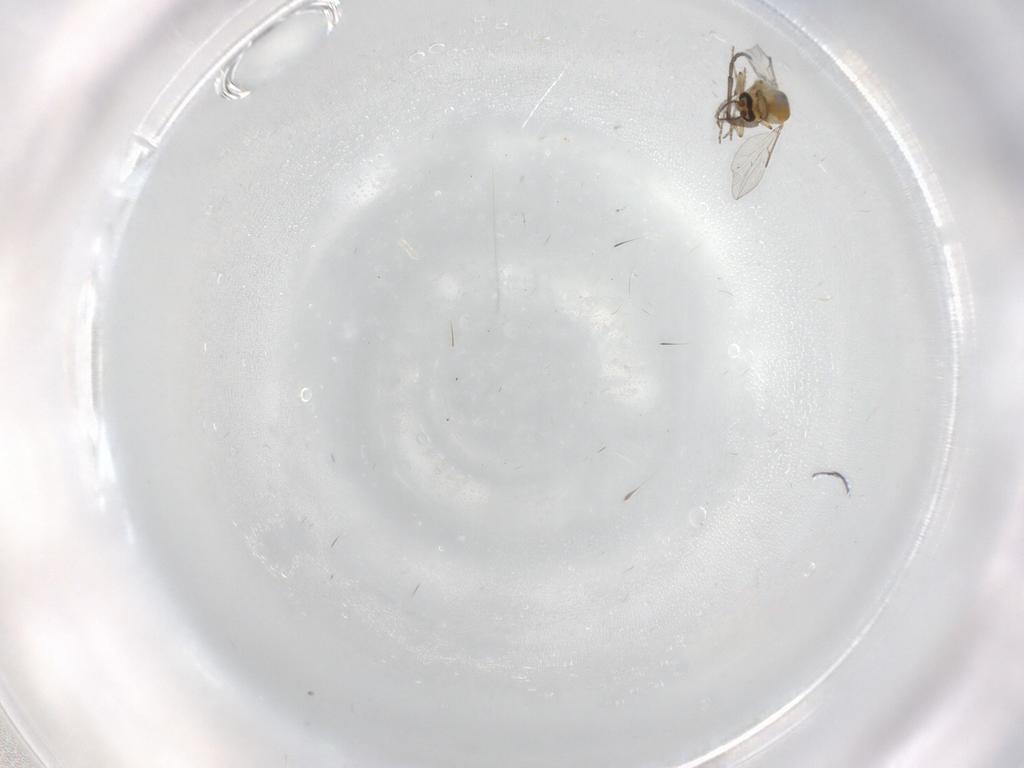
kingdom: Animalia
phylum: Arthropoda
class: Insecta
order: Diptera
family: Ceratopogonidae
